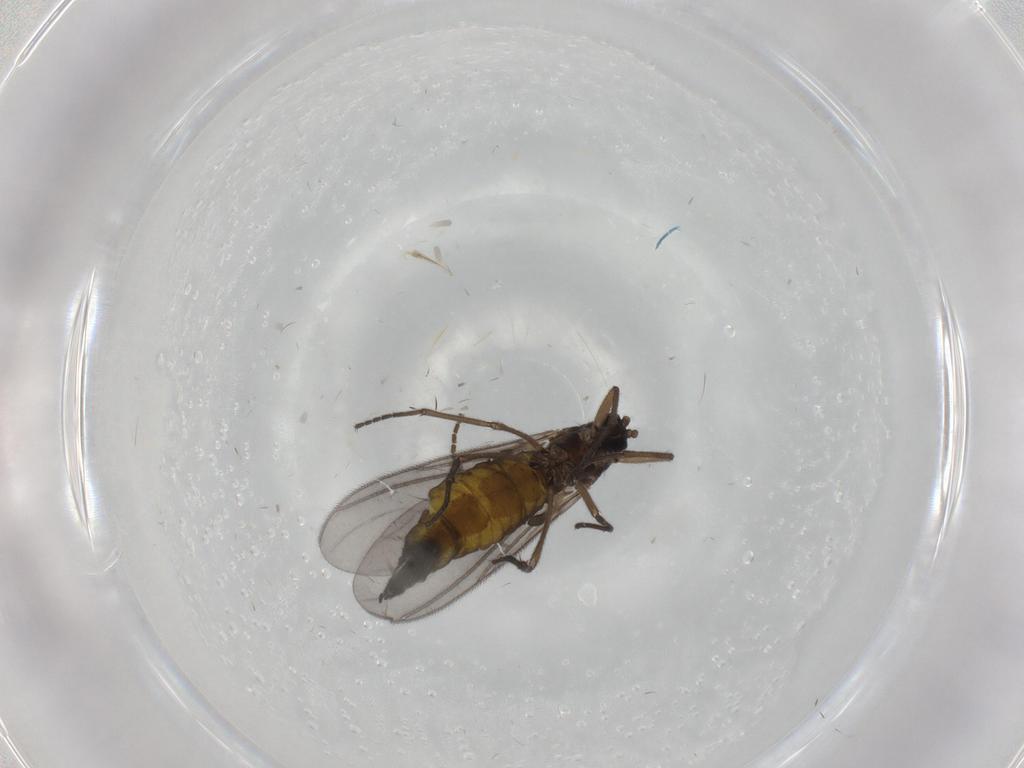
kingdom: Animalia
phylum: Arthropoda
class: Insecta
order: Diptera
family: Sciaridae
